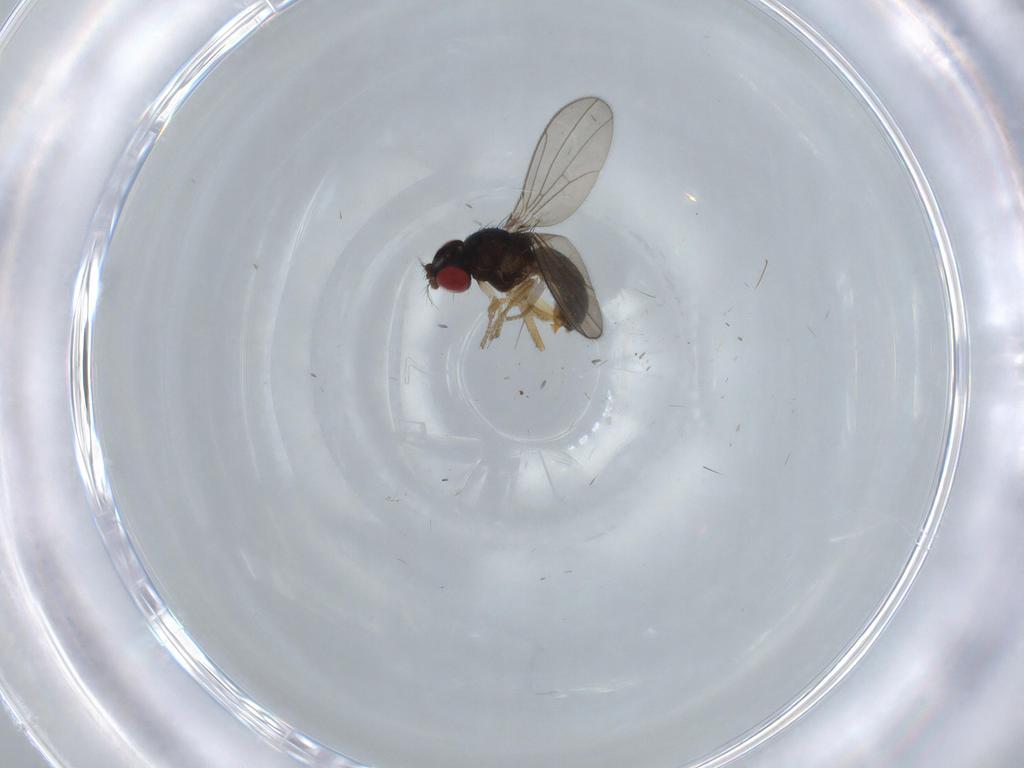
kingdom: Animalia
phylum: Arthropoda
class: Insecta
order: Diptera
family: Drosophilidae
